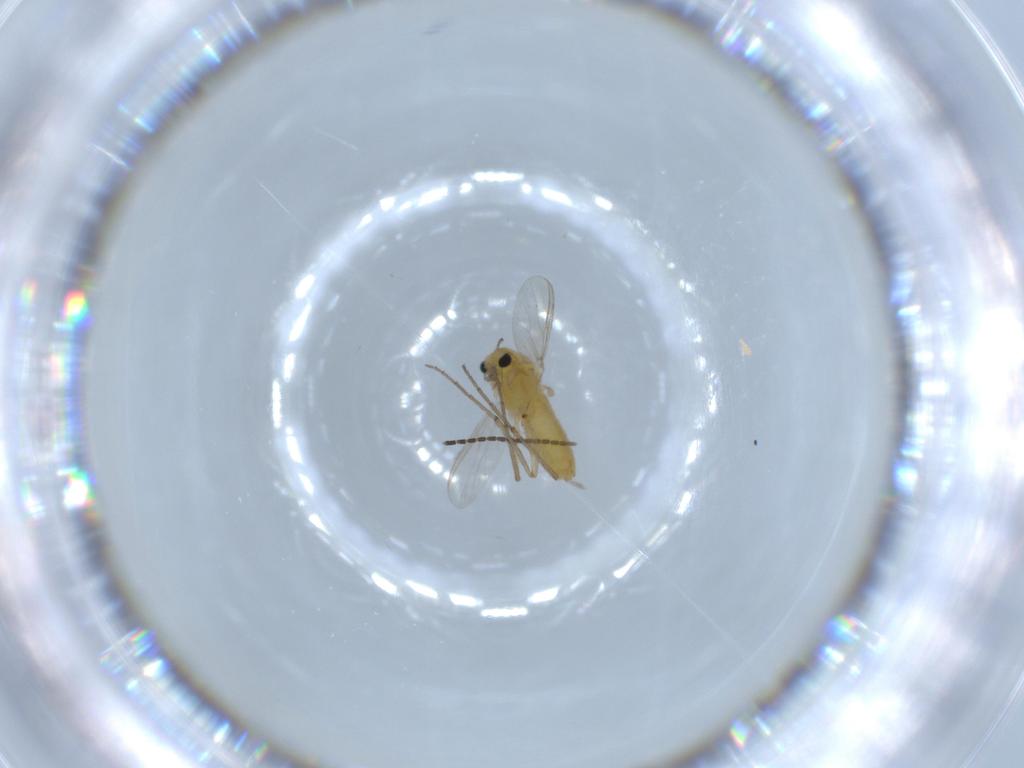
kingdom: Animalia
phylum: Arthropoda
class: Insecta
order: Diptera
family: Chironomidae
